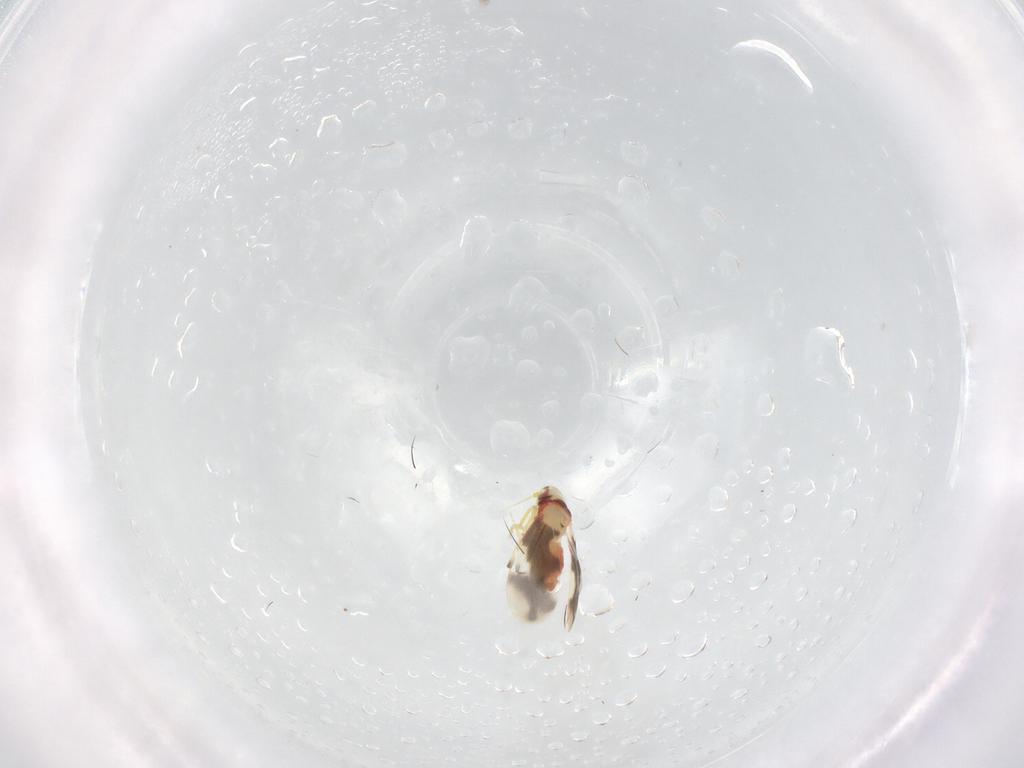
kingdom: Animalia
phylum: Arthropoda
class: Insecta
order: Hemiptera
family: Aleyrodidae
